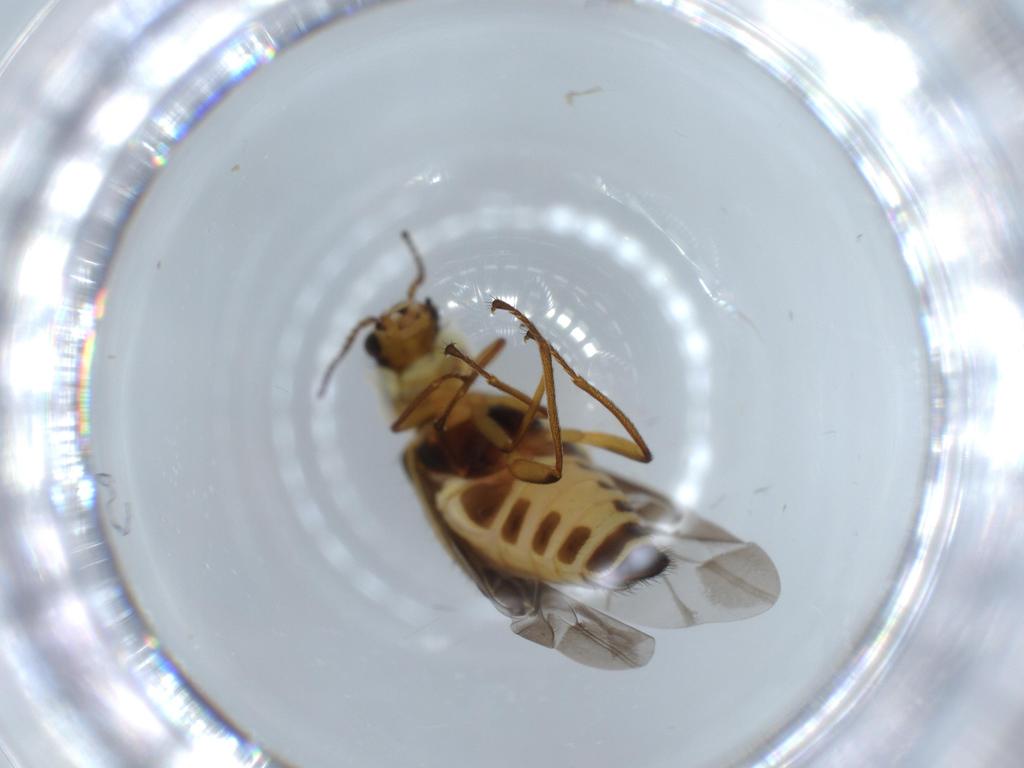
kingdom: Animalia
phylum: Arthropoda
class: Insecta
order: Coleoptera
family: Melyridae
